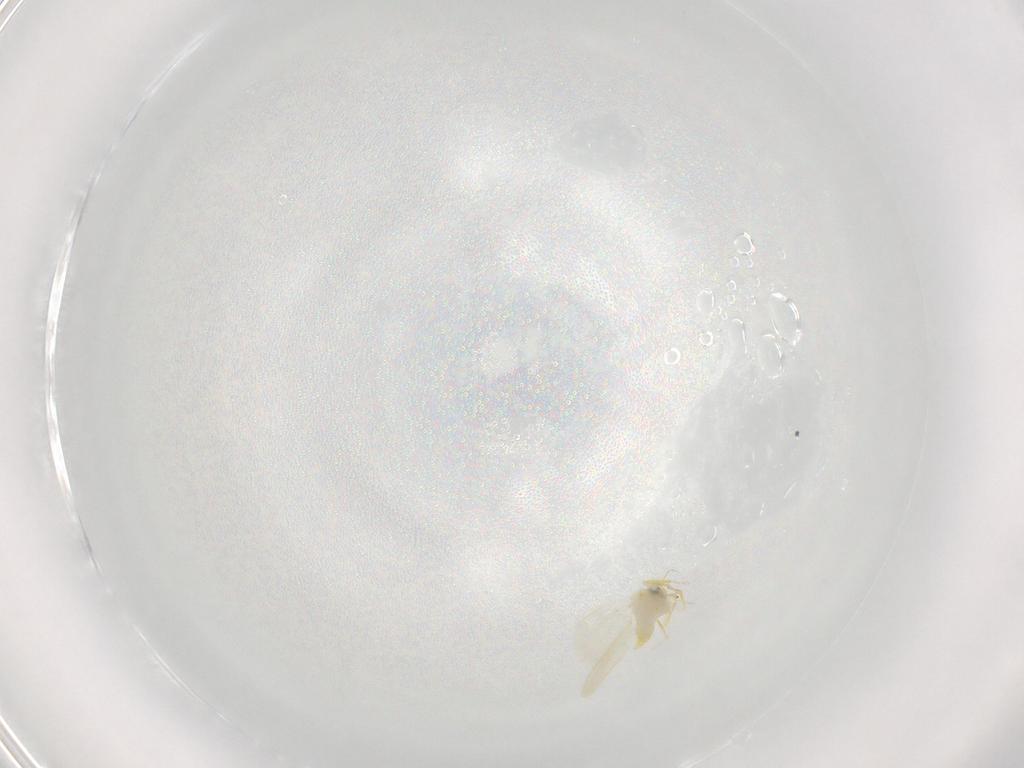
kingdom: Animalia
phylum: Arthropoda
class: Insecta
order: Hemiptera
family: Aleyrodidae
